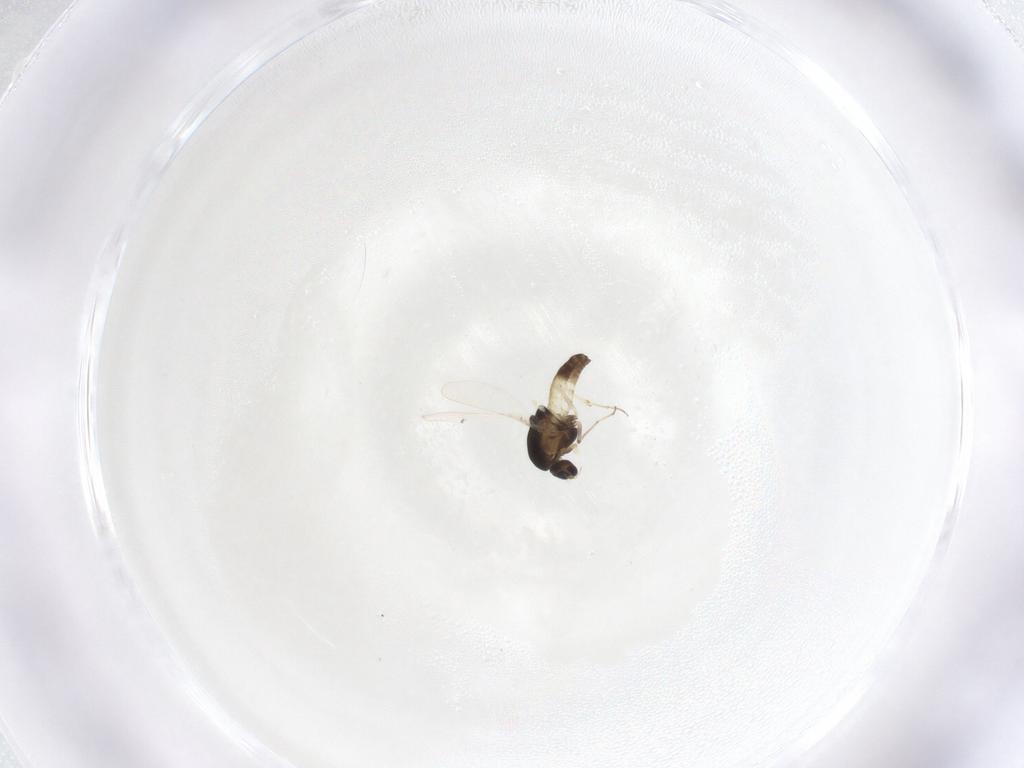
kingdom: Animalia
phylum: Arthropoda
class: Insecta
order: Diptera
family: Chironomidae
